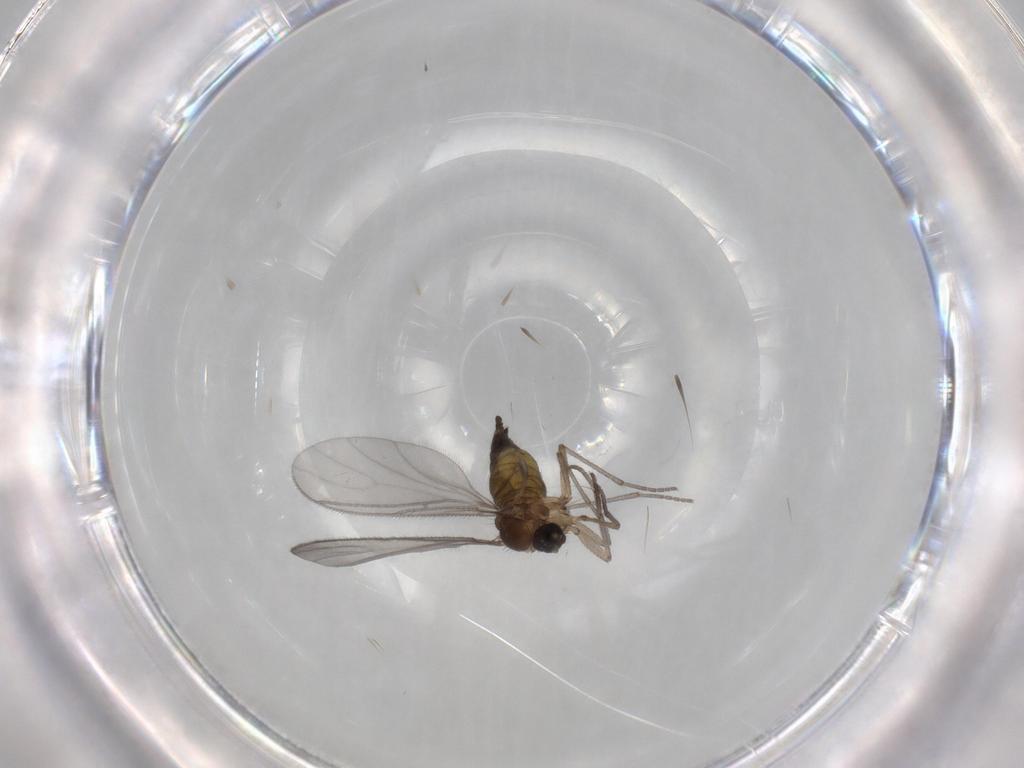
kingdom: Animalia
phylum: Arthropoda
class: Insecta
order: Diptera
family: Sciaridae
